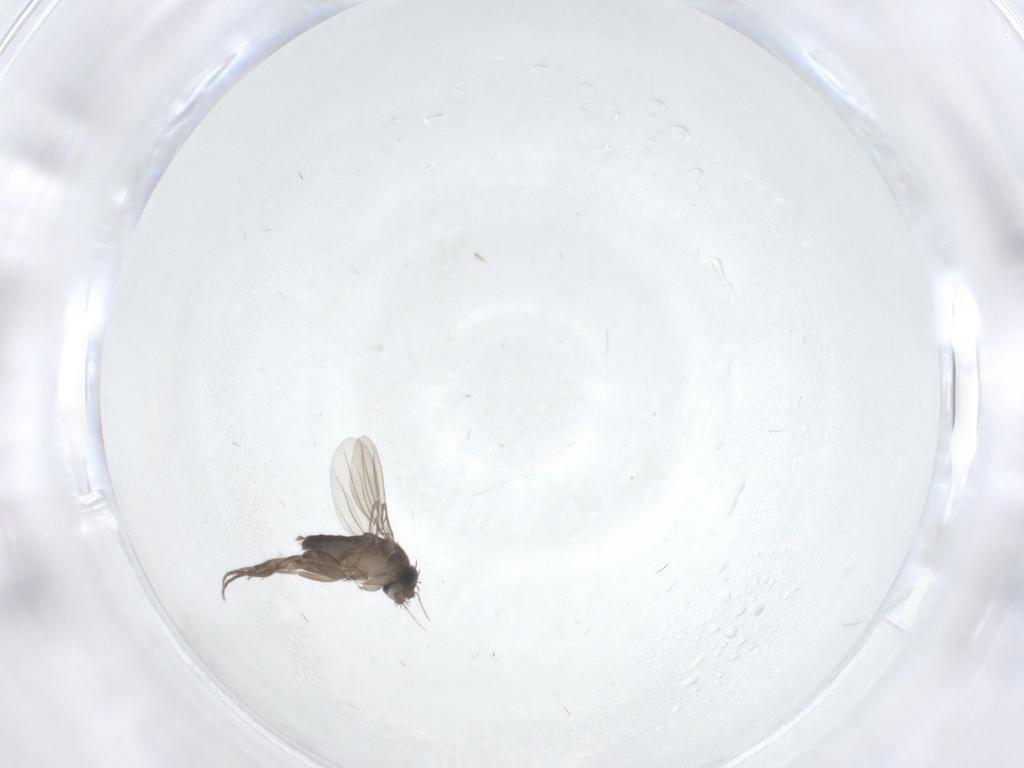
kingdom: Animalia
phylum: Arthropoda
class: Insecta
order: Diptera
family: Phoridae
